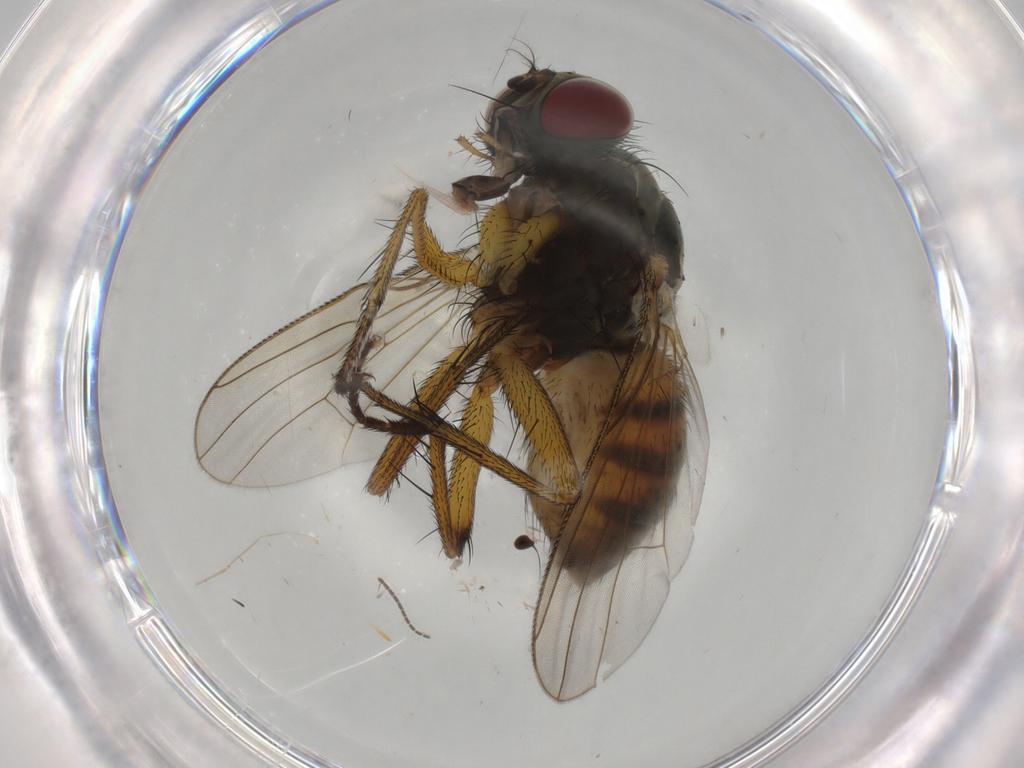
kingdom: Animalia
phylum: Arthropoda
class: Insecta
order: Diptera
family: Muscidae
